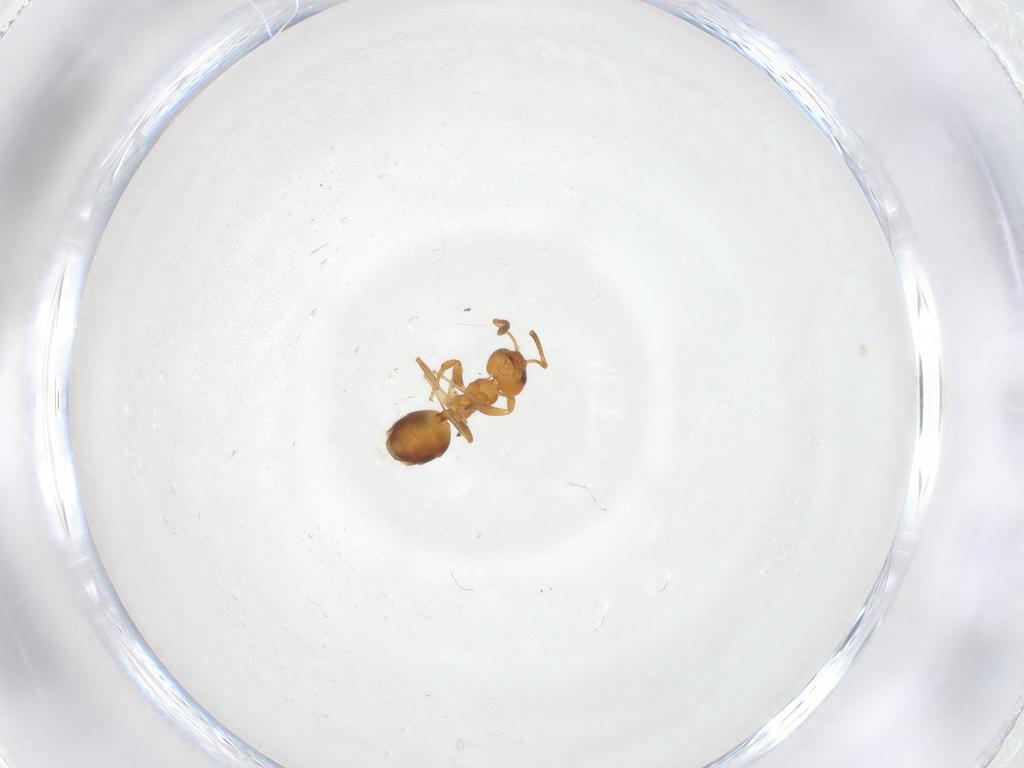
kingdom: Animalia
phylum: Arthropoda
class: Insecta
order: Hymenoptera
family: Formicidae
